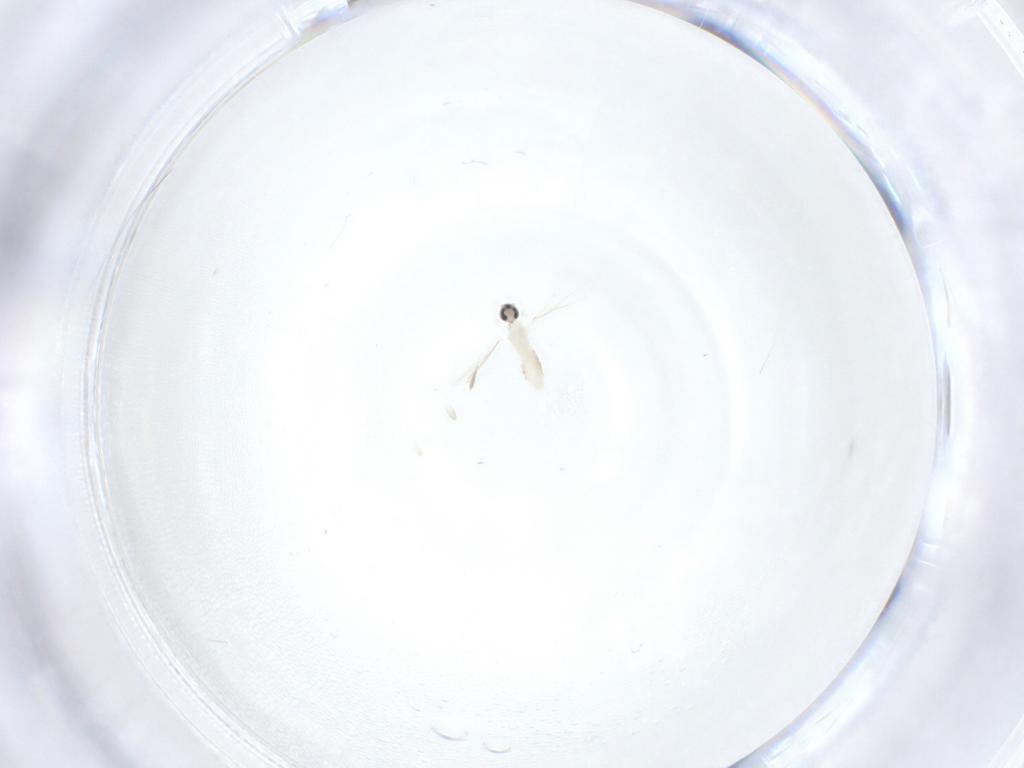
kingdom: Animalia
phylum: Arthropoda
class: Insecta
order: Diptera
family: Cecidomyiidae
